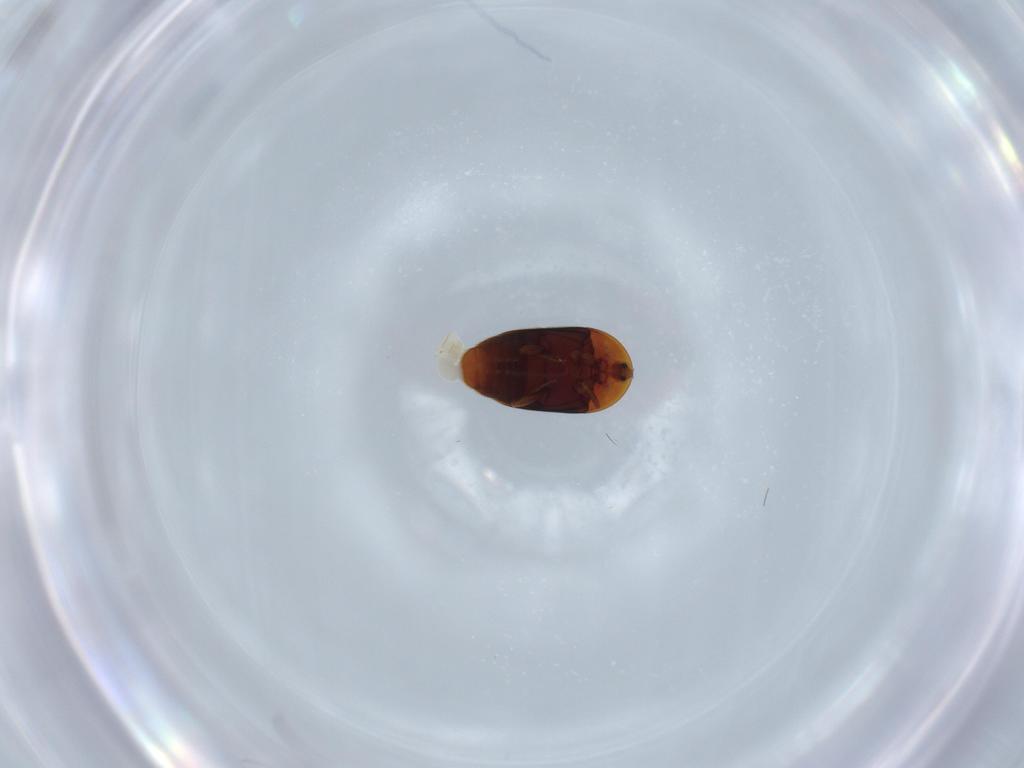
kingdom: Animalia
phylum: Arthropoda
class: Insecta
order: Coleoptera
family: Corylophidae
